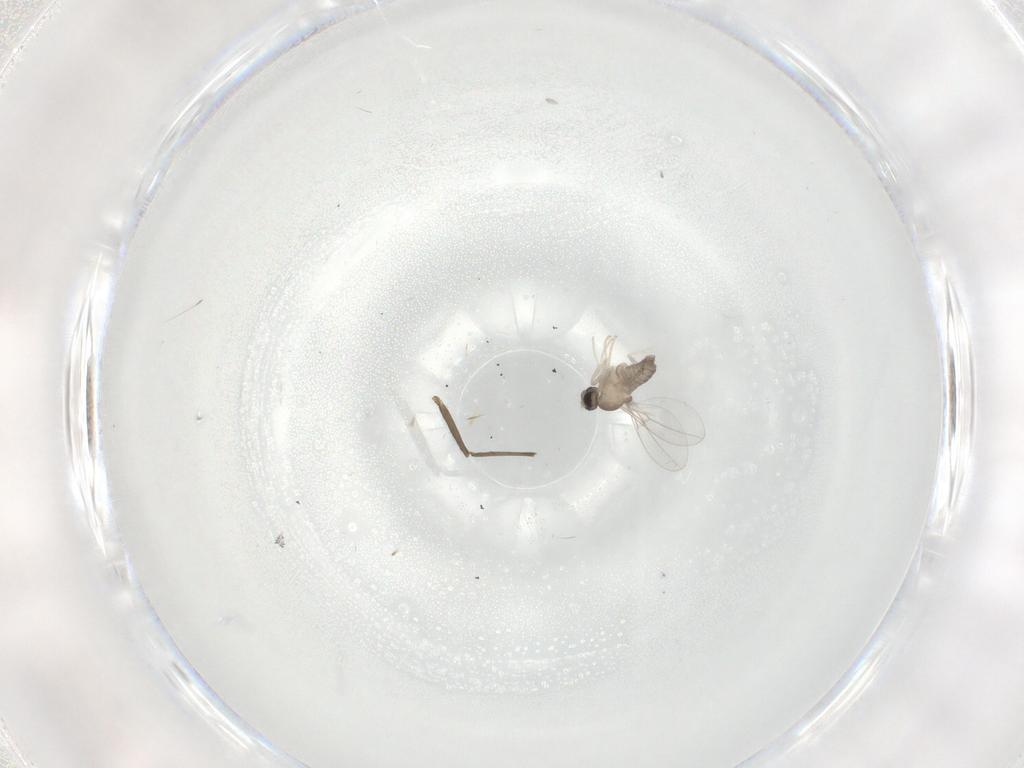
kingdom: Animalia
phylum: Arthropoda
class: Insecta
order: Diptera
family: Cecidomyiidae
